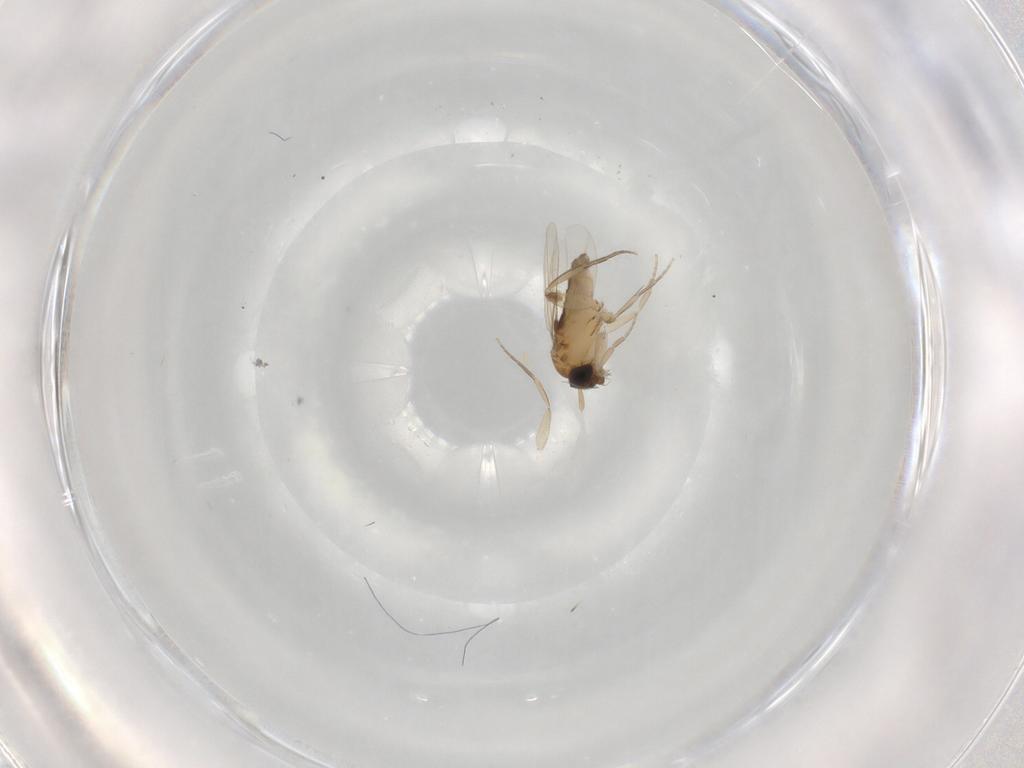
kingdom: Animalia
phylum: Arthropoda
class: Insecta
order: Diptera
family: Phoridae
